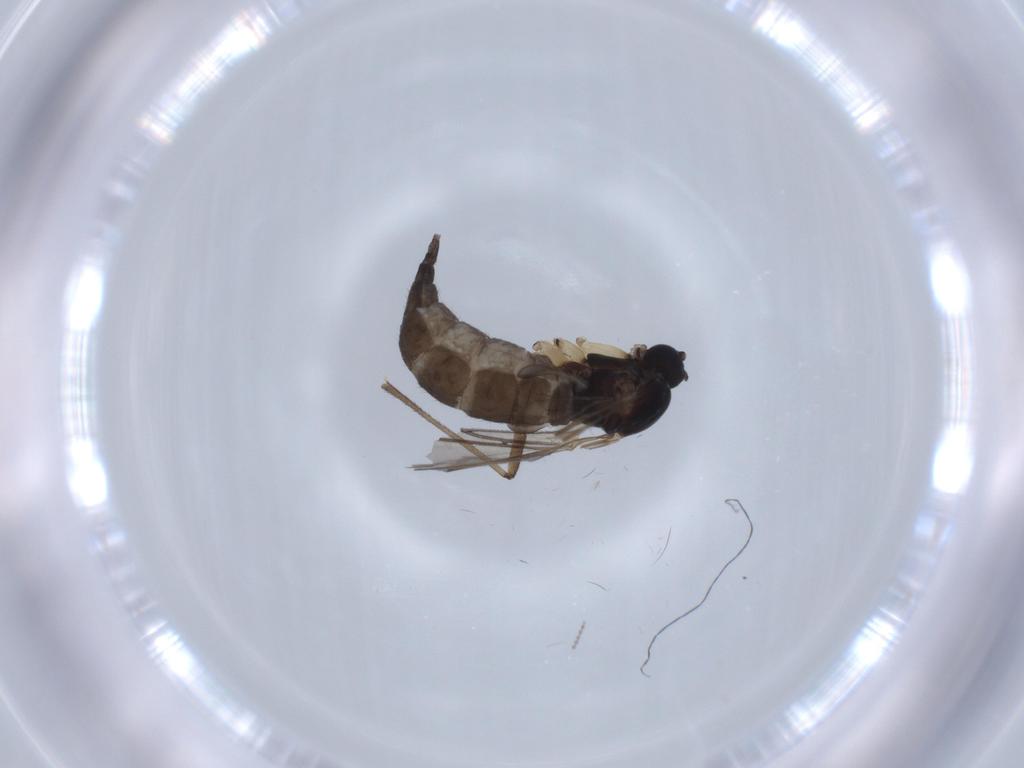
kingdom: Animalia
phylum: Arthropoda
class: Insecta
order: Diptera
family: Sciaridae
